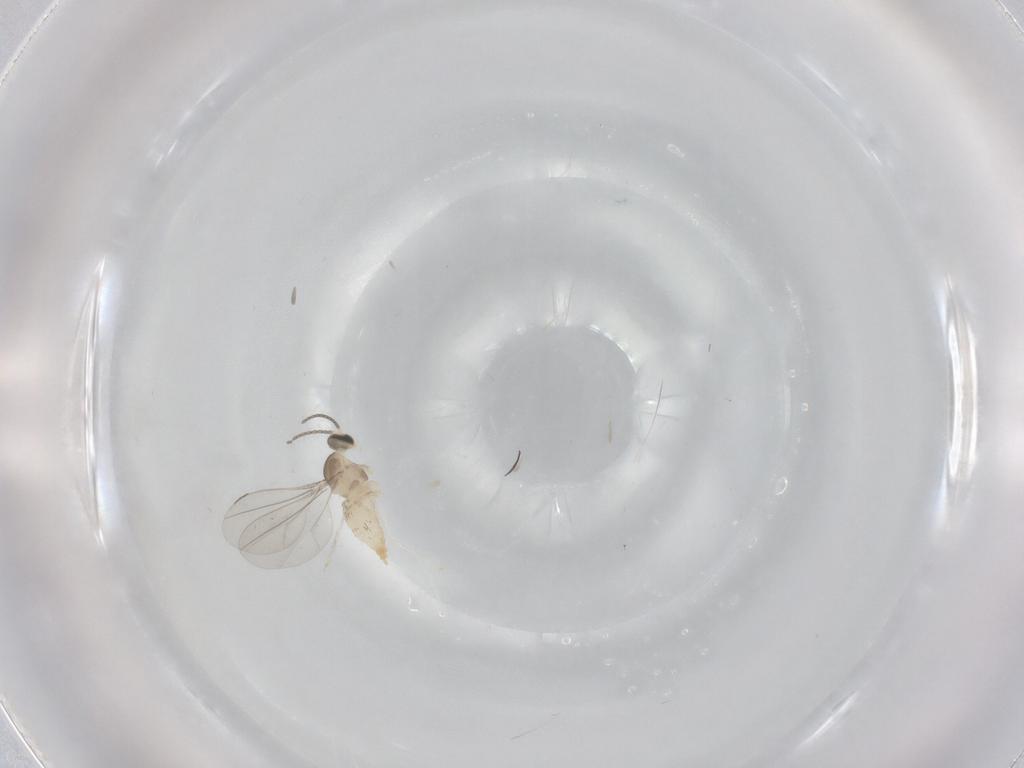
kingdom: Animalia
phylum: Arthropoda
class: Insecta
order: Diptera
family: Cecidomyiidae
